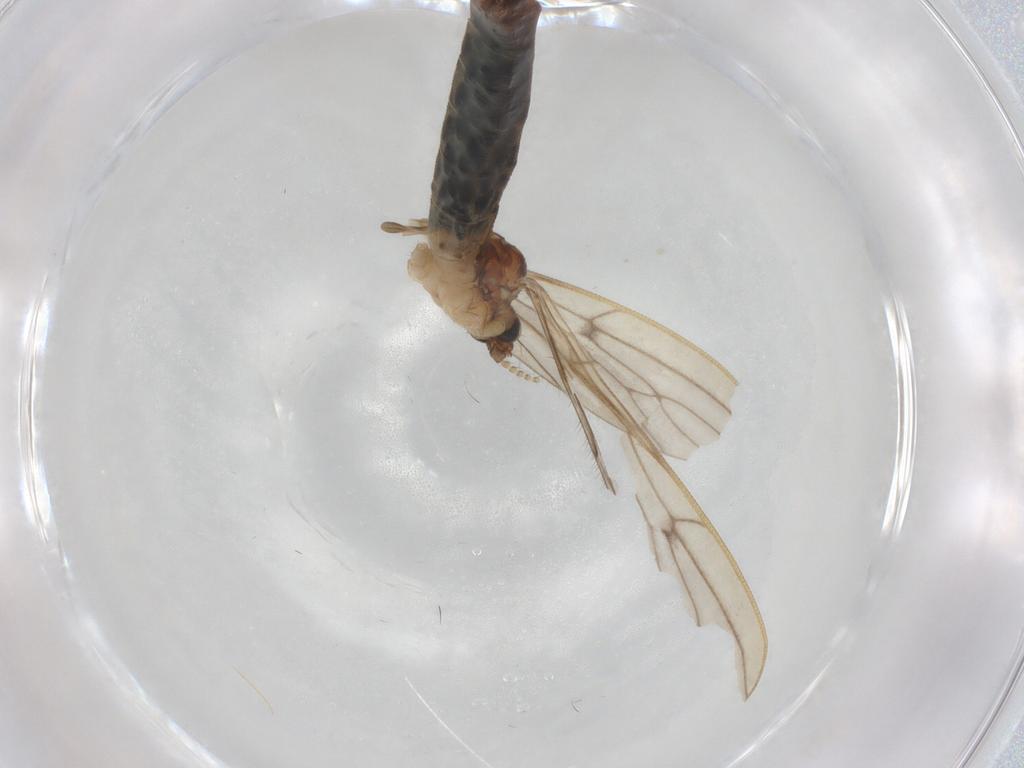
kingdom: Animalia
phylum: Arthropoda
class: Insecta
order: Diptera
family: Limoniidae
